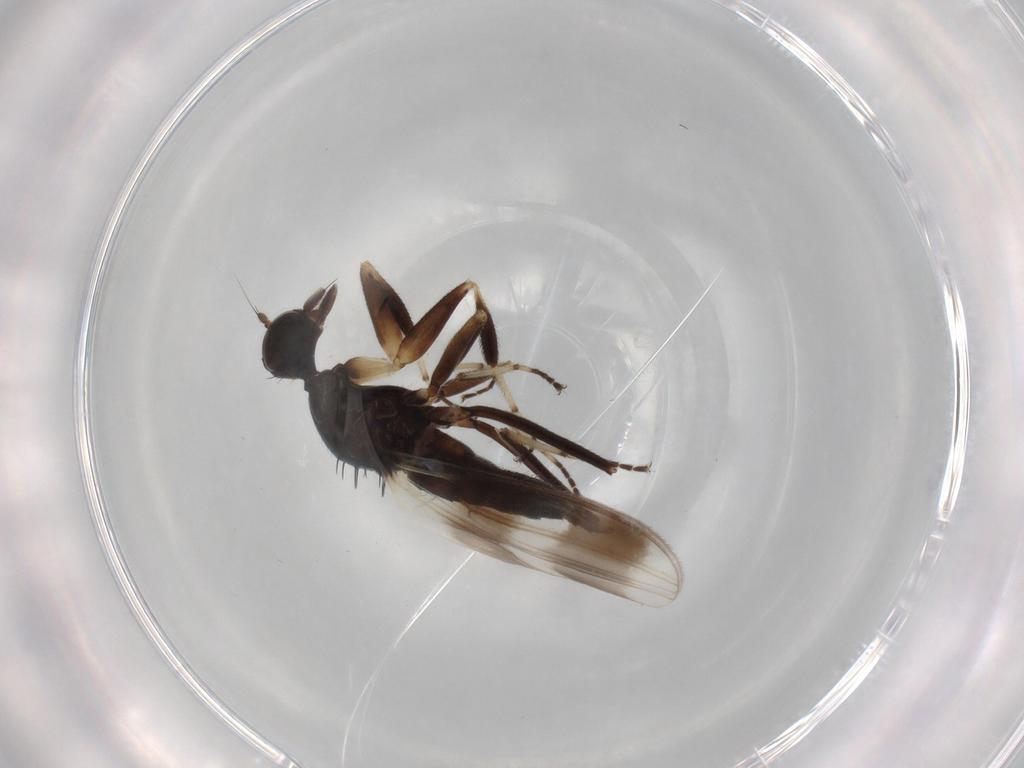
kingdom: Animalia
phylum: Arthropoda
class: Insecta
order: Diptera
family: Hybotidae
